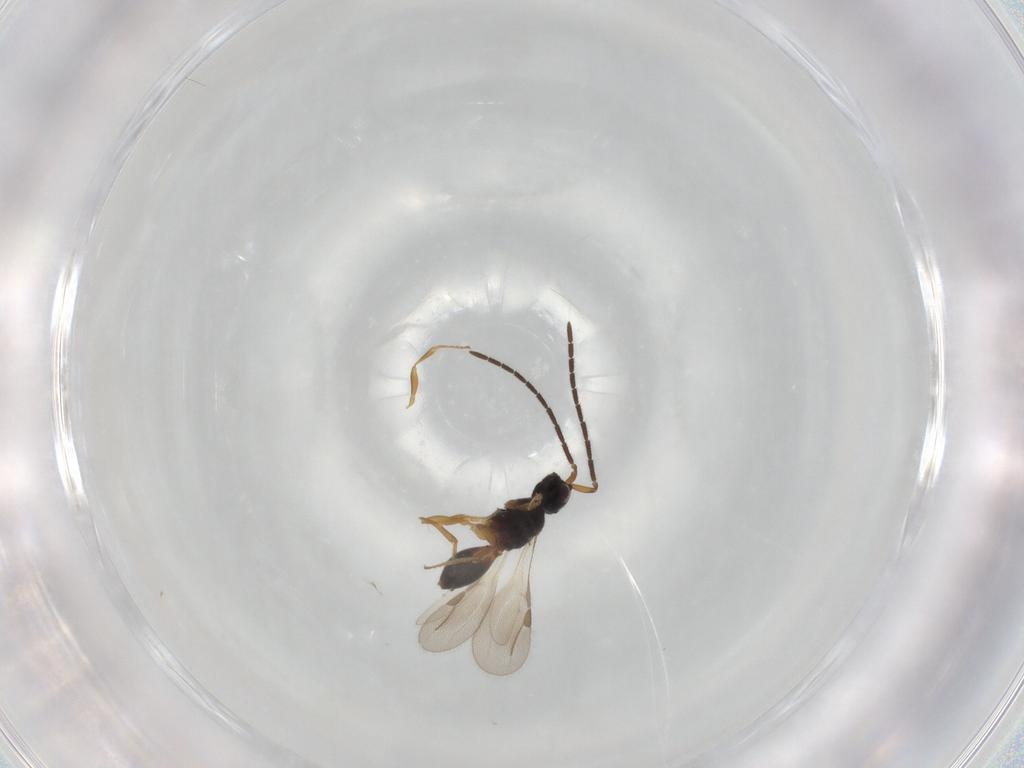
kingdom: Animalia
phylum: Arthropoda
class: Insecta
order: Hymenoptera
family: Megaspilidae
